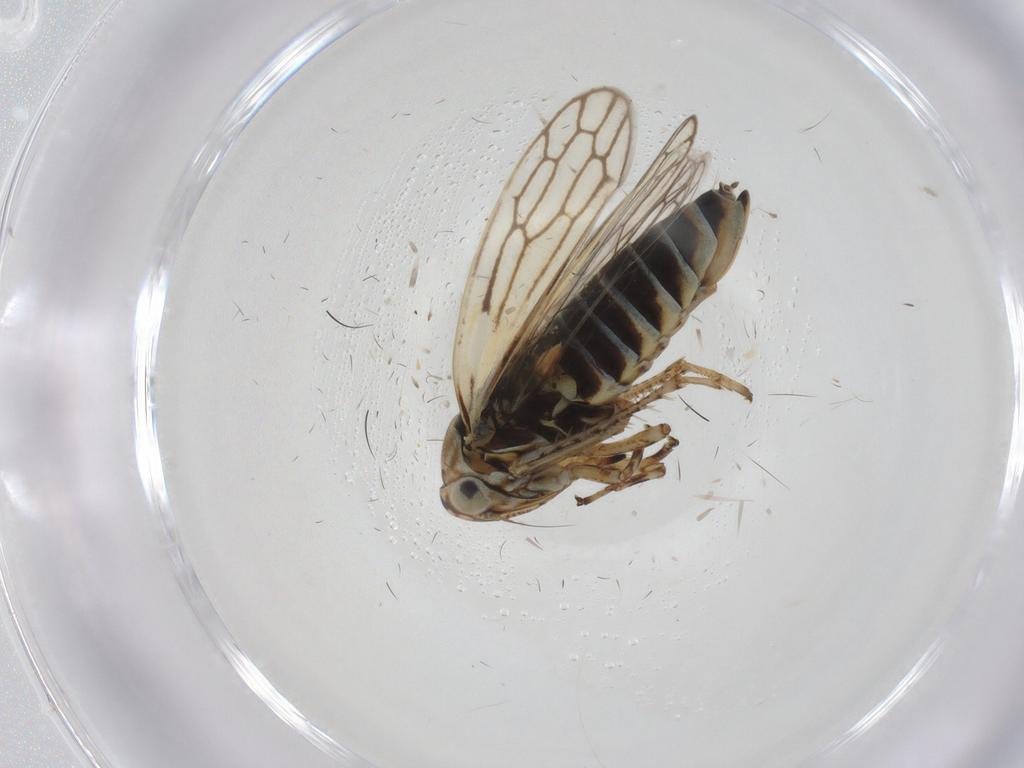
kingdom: Animalia
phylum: Arthropoda
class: Insecta
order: Hemiptera
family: Cicadellidae
